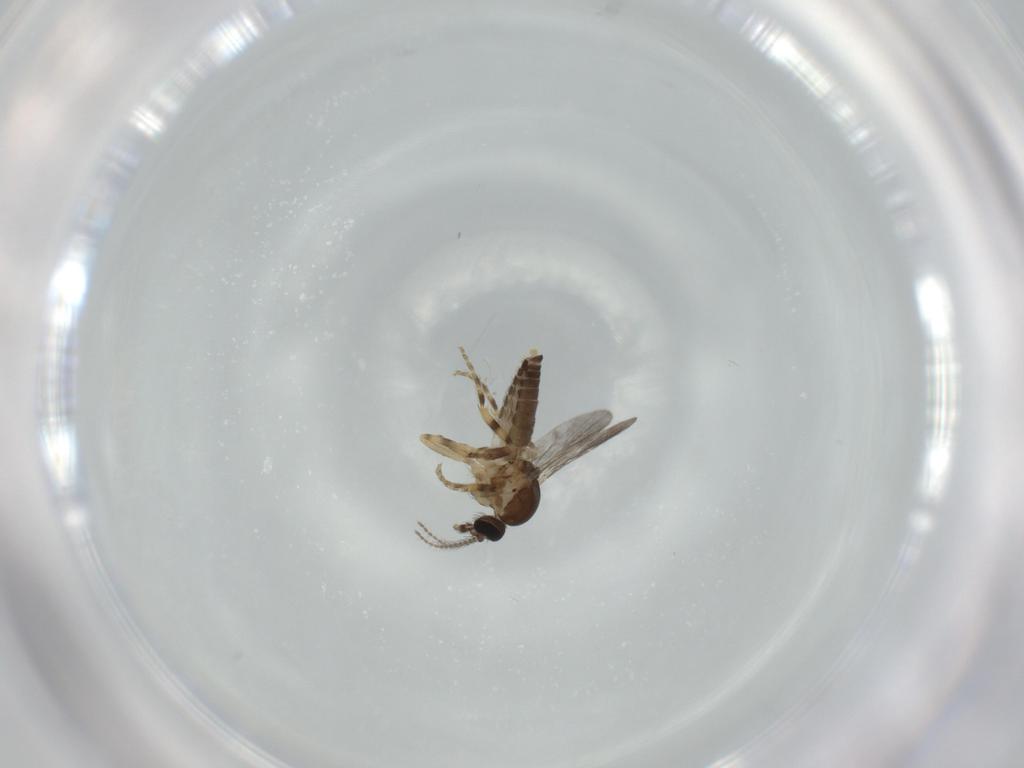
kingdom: Animalia
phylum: Arthropoda
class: Insecta
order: Diptera
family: Ceratopogonidae
